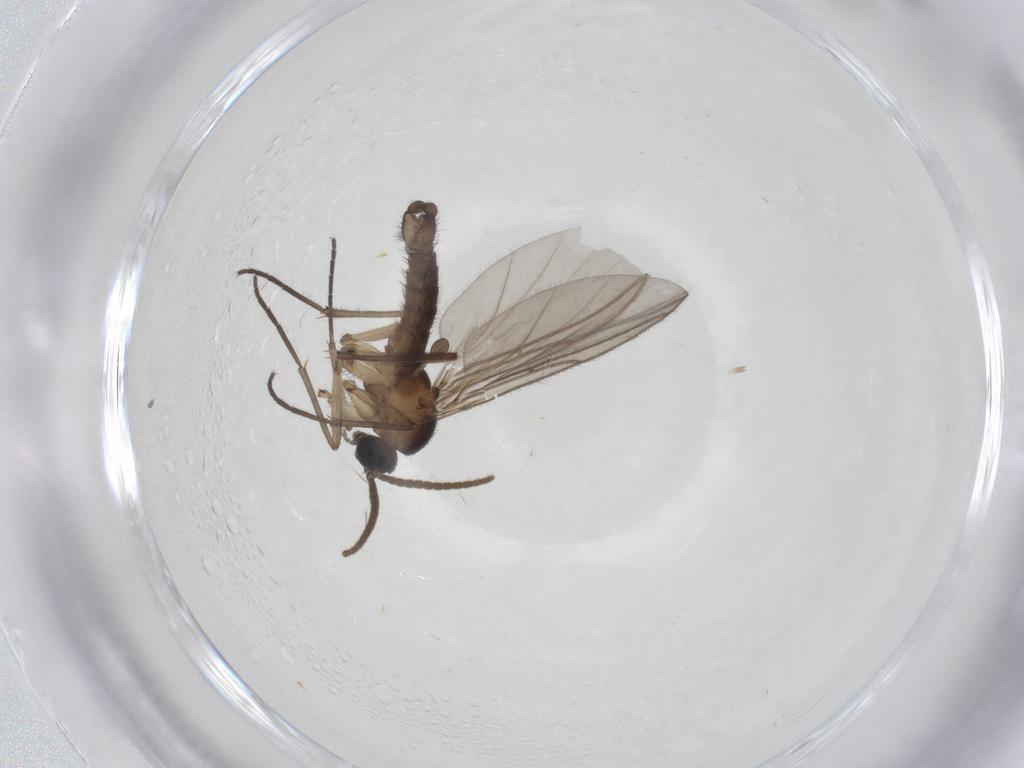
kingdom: Animalia
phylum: Arthropoda
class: Insecta
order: Diptera
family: Dolichopodidae
